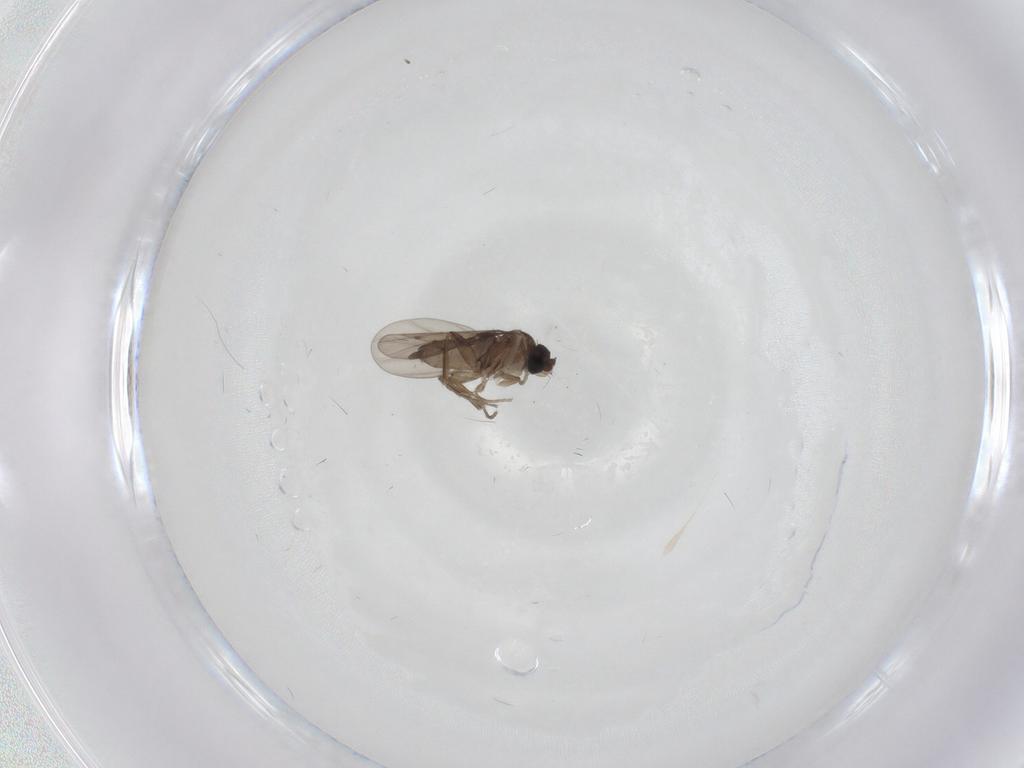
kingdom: Animalia
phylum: Arthropoda
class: Insecta
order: Diptera
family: Phoridae
